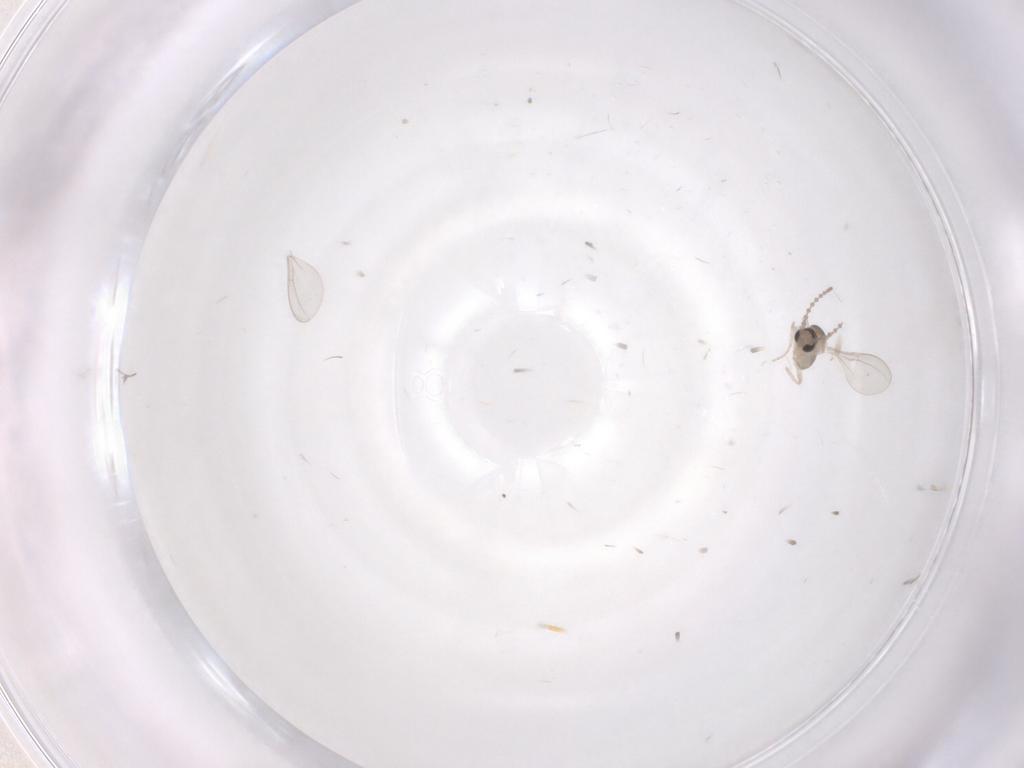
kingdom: Animalia
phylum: Arthropoda
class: Insecta
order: Diptera
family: Cecidomyiidae
